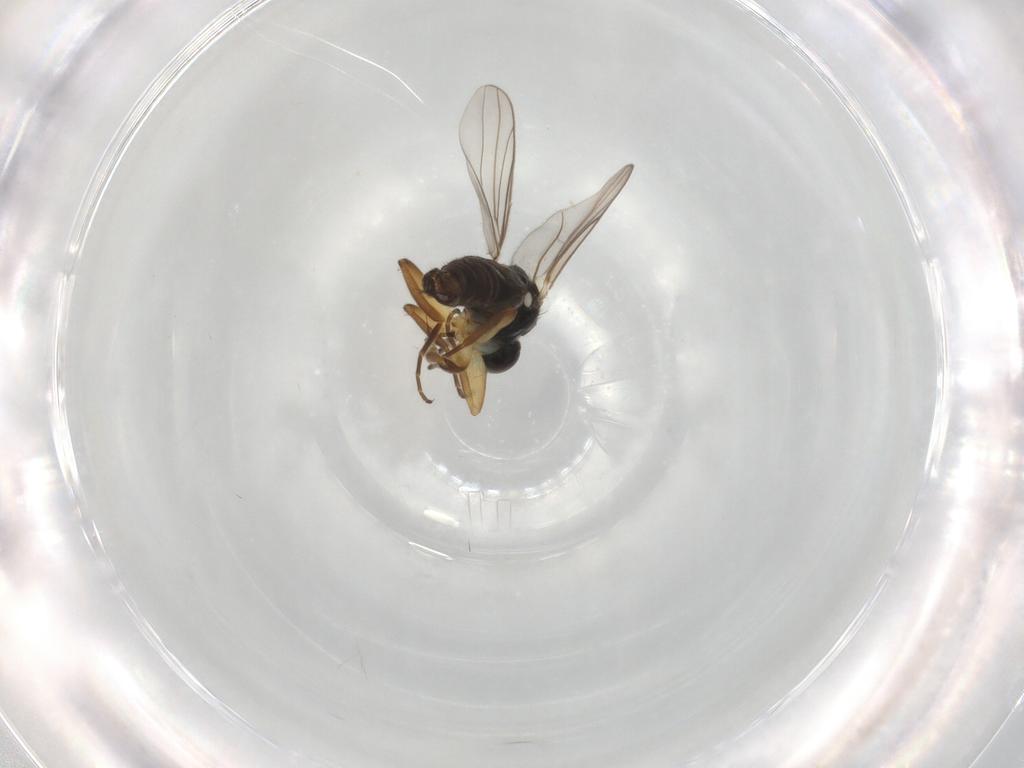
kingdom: Animalia
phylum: Arthropoda
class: Insecta
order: Diptera
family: Hybotidae
